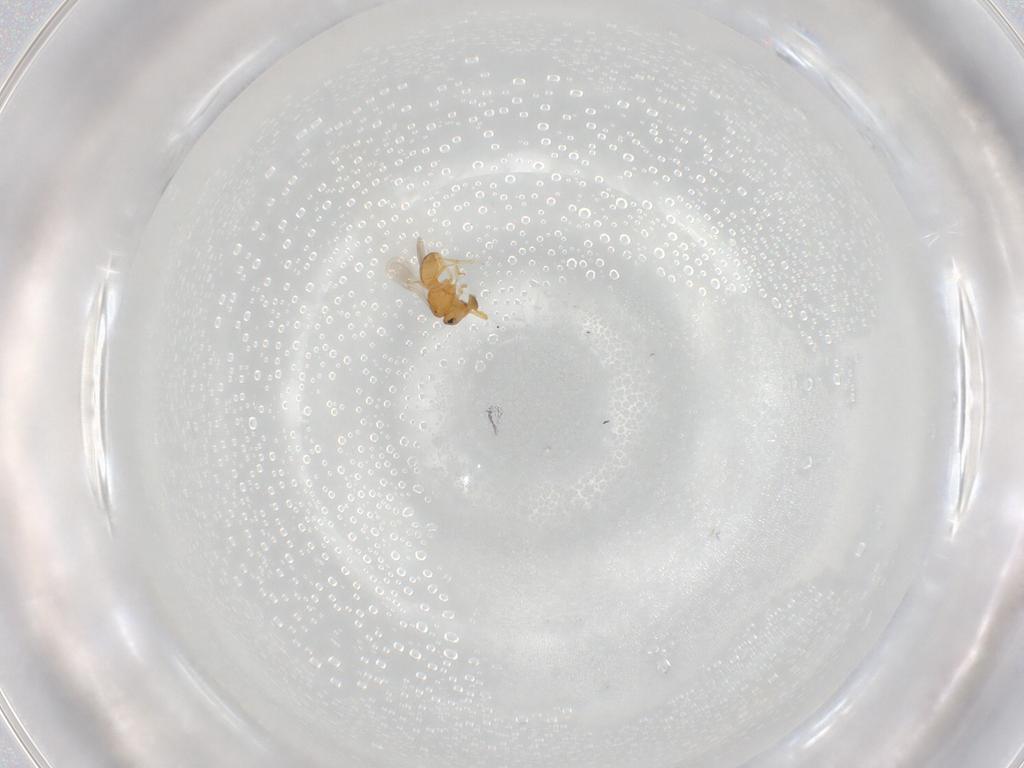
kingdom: Animalia
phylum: Arthropoda
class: Insecta
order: Hymenoptera
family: Scelionidae
